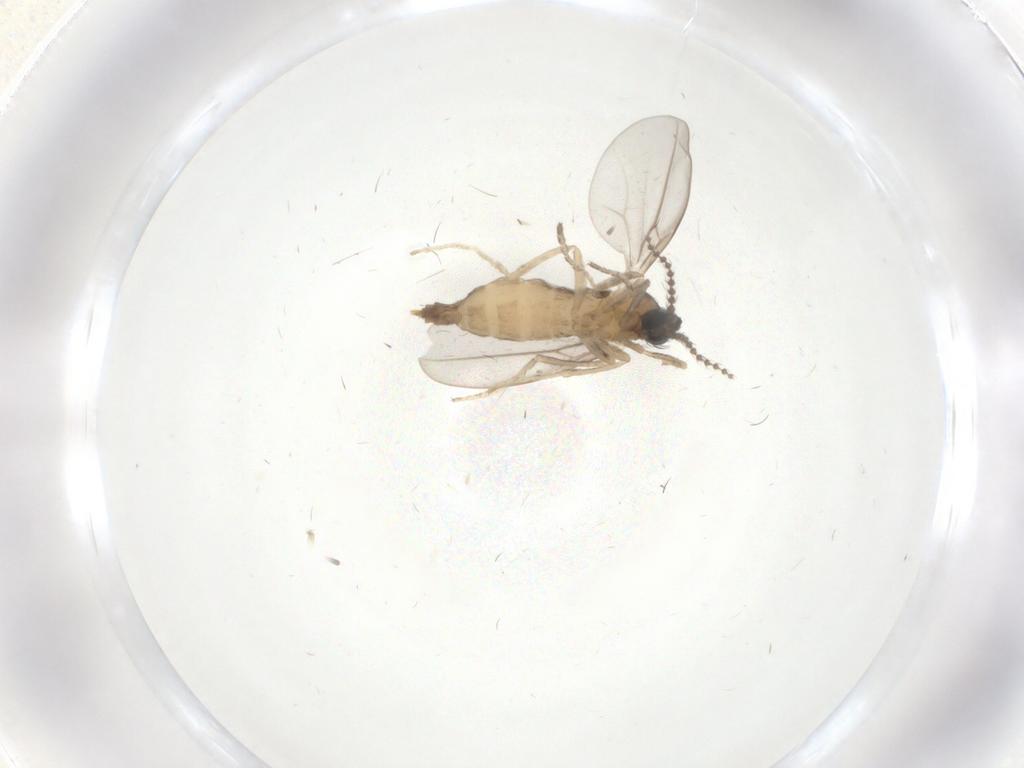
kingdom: Animalia
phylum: Arthropoda
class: Insecta
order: Diptera
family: Cecidomyiidae
